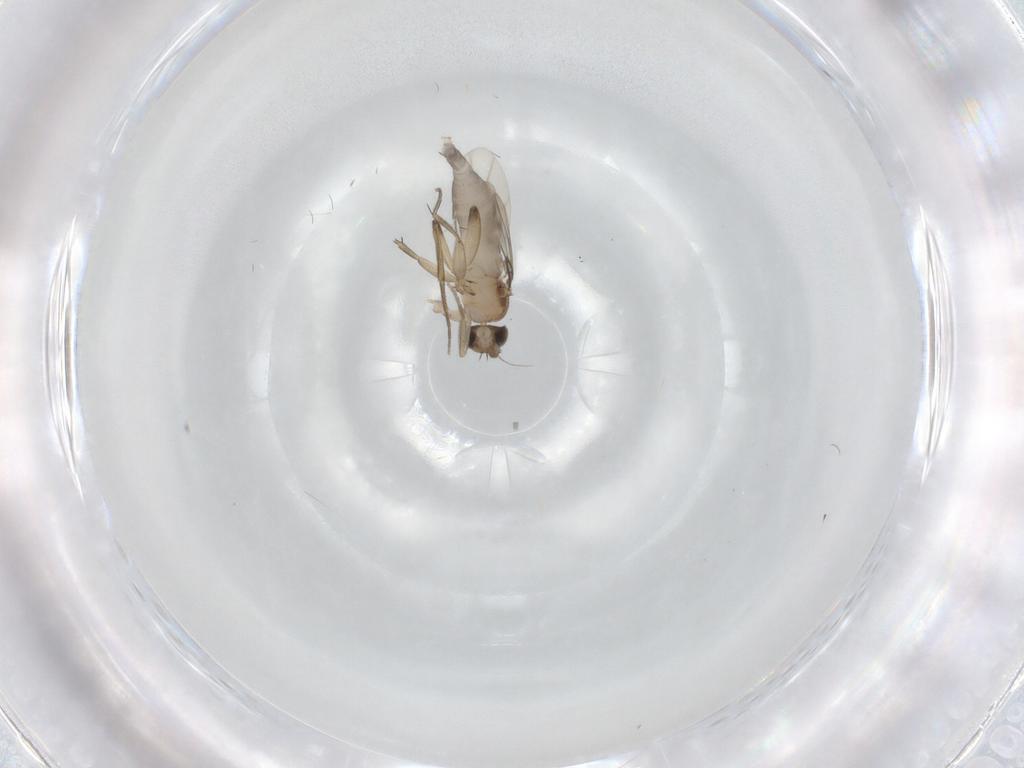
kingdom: Animalia
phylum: Arthropoda
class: Insecta
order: Diptera
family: Phoridae
